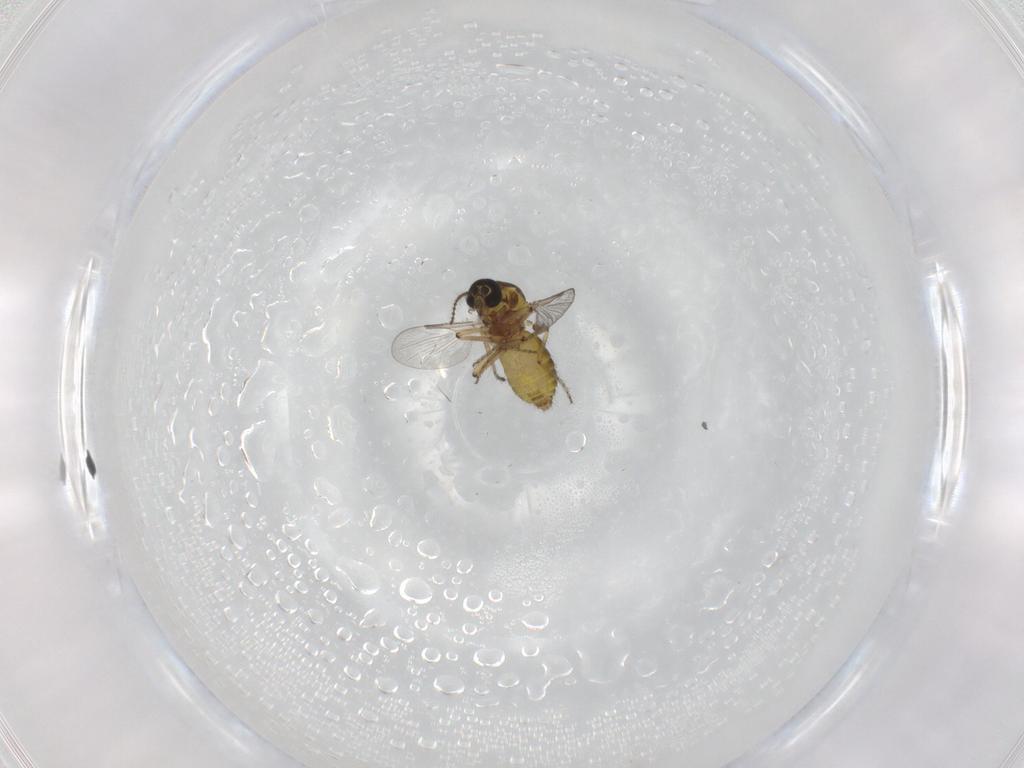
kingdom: Animalia
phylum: Arthropoda
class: Insecta
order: Diptera
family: Ceratopogonidae
